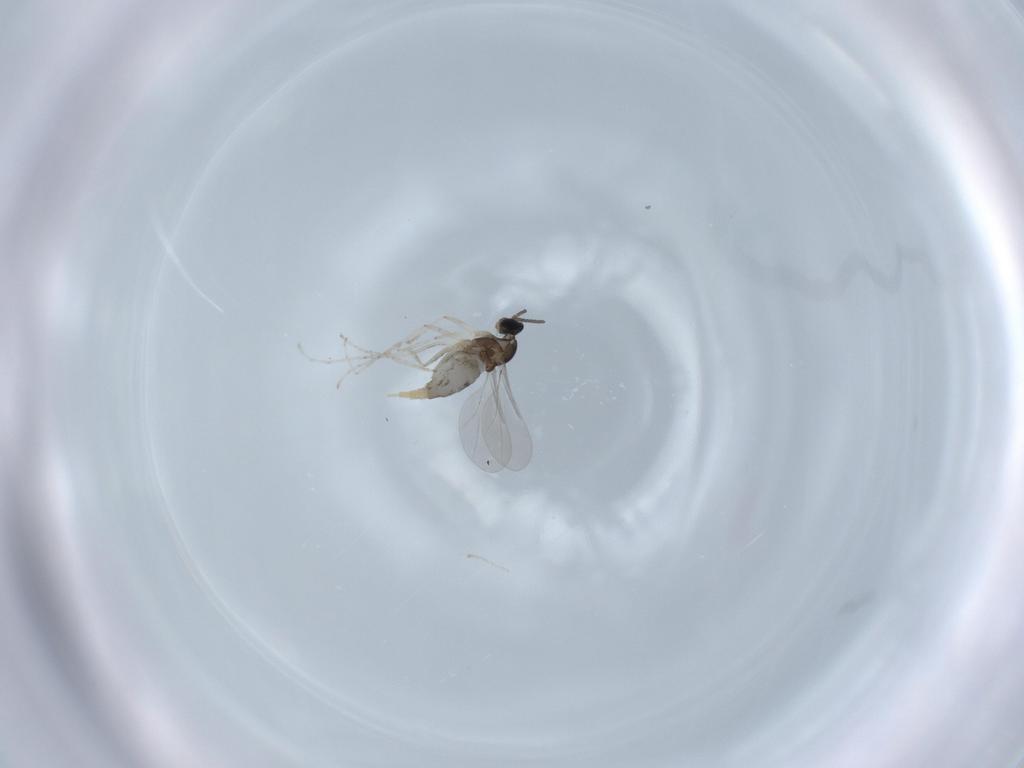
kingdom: Animalia
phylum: Arthropoda
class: Insecta
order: Diptera
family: Cecidomyiidae
